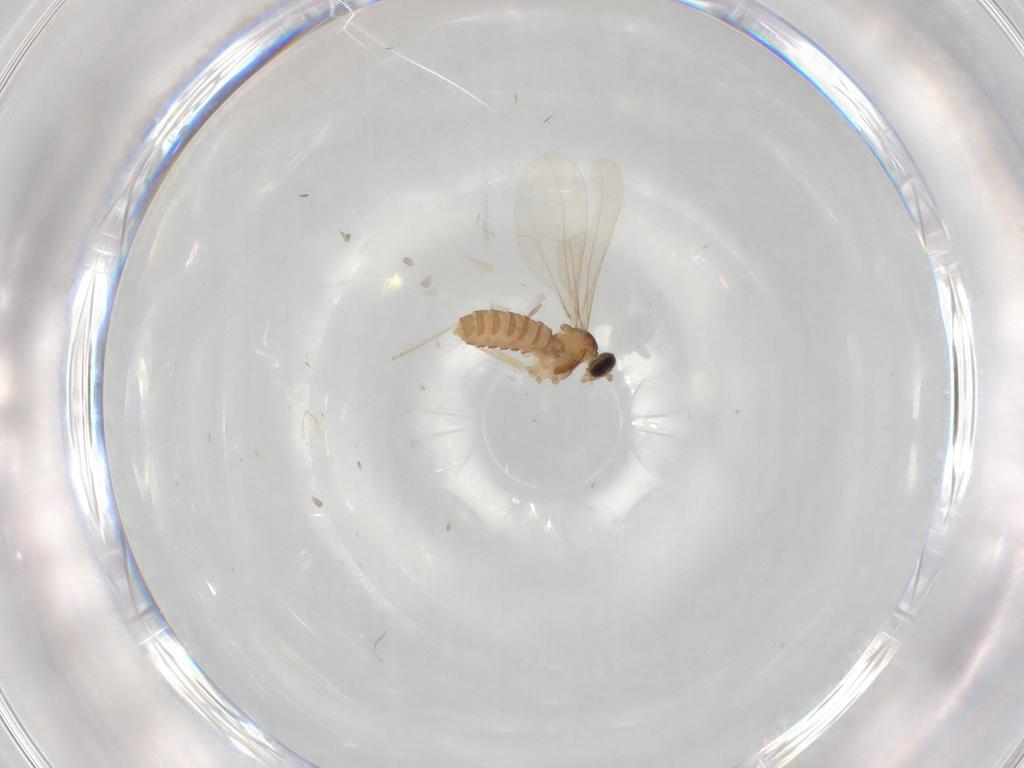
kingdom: Animalia
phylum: Arthropoda
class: Insecta
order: Diptera
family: Cecidomyiidae
